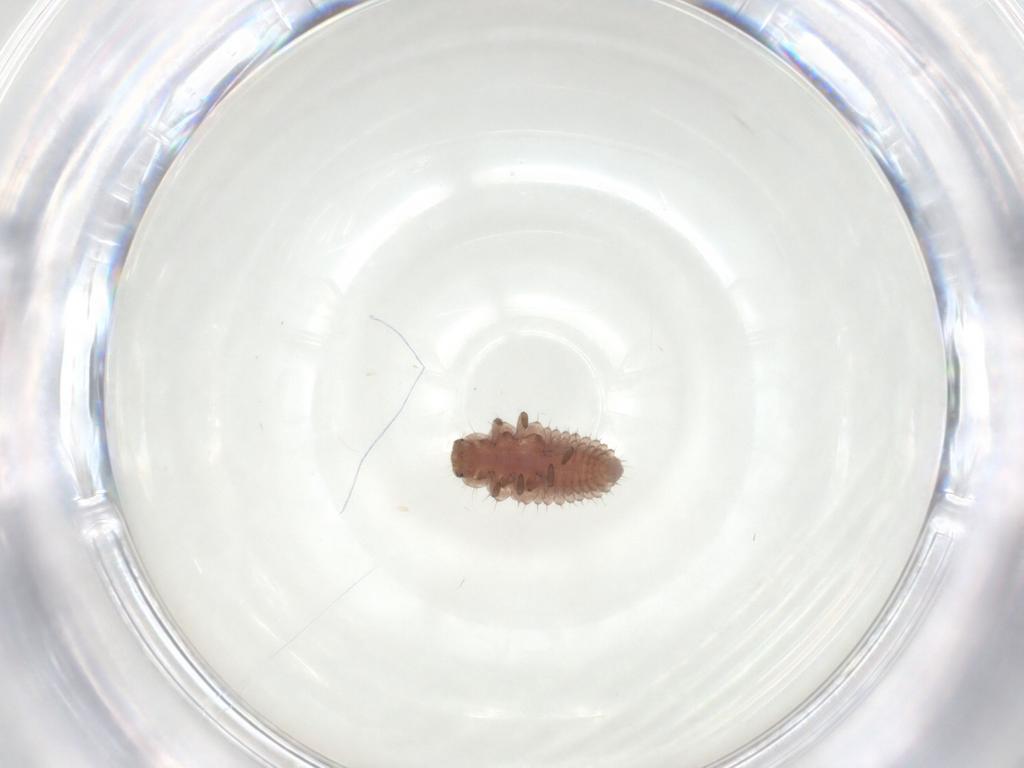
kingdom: Animalia
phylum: Arthropoda
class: Insecta
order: Coleoptera
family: Coccinellidae
